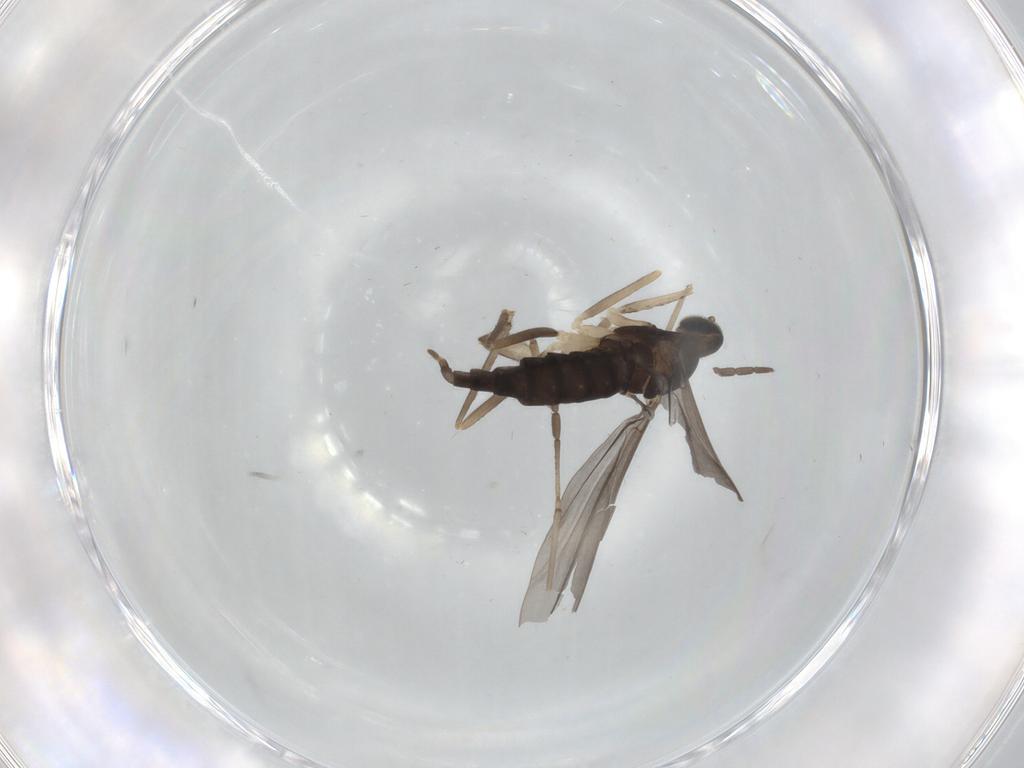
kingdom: Animalia
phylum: Arthropoda
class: Insecta
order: Diptera
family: Cecidomyiidae
